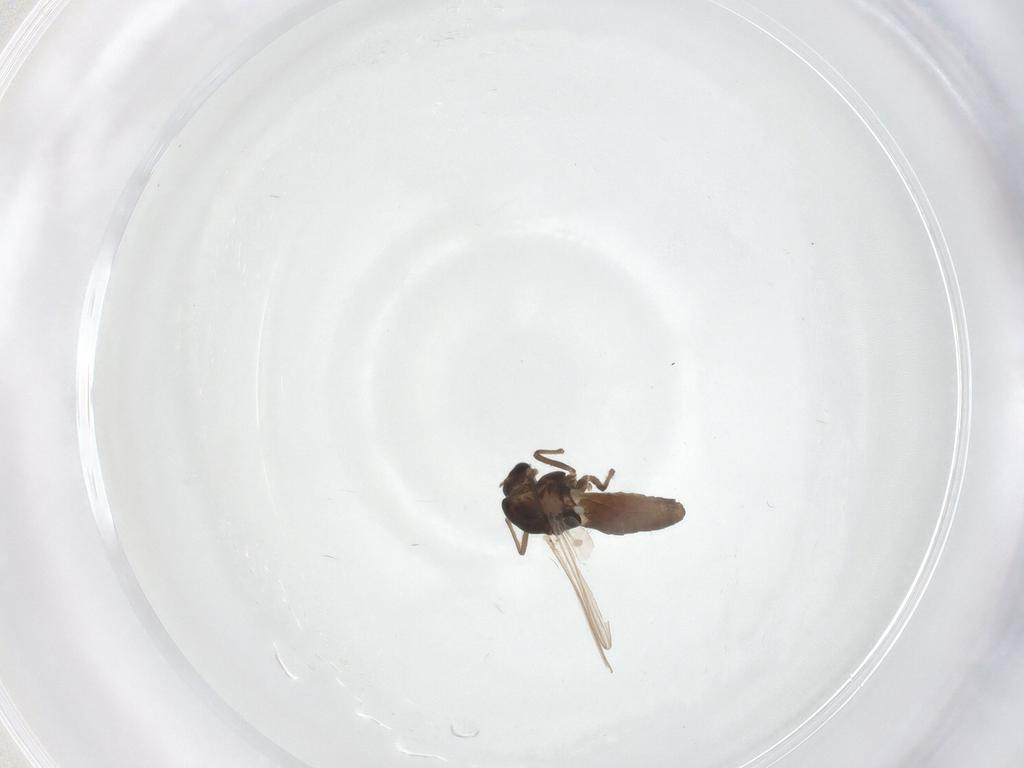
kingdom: Animalia
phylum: Arthropoda
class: Insecta
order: Diptera
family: Chironomidae
